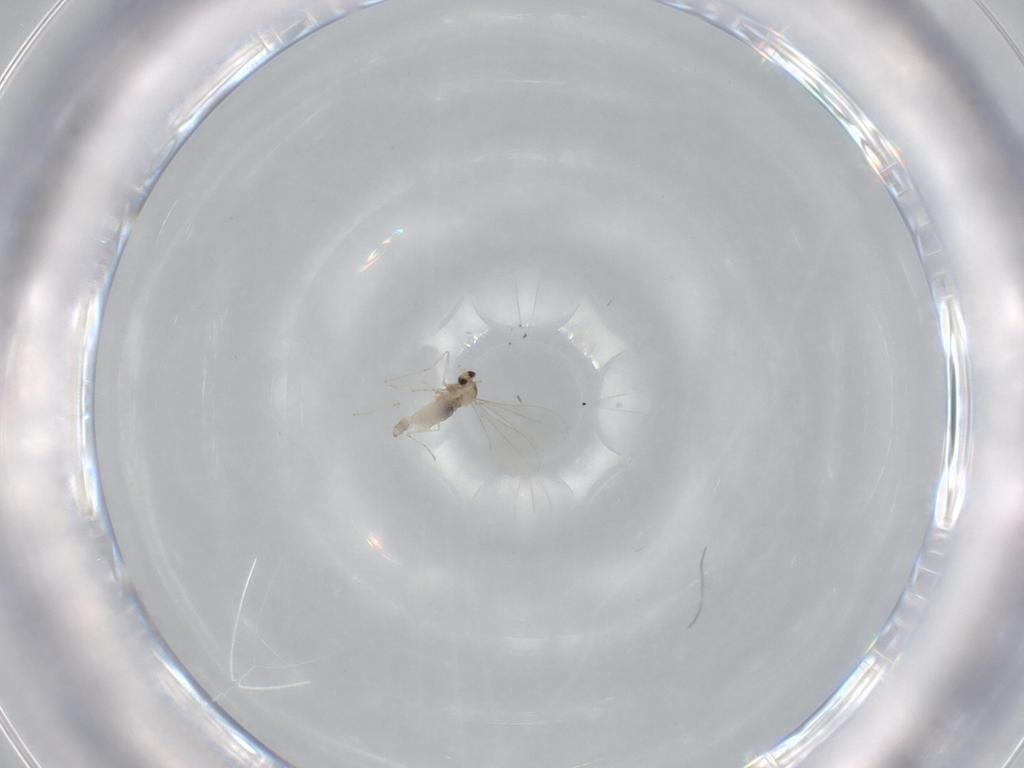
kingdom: Animalia
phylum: Arthropoda
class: Insecta
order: Diptera
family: Cecidomyiidae
